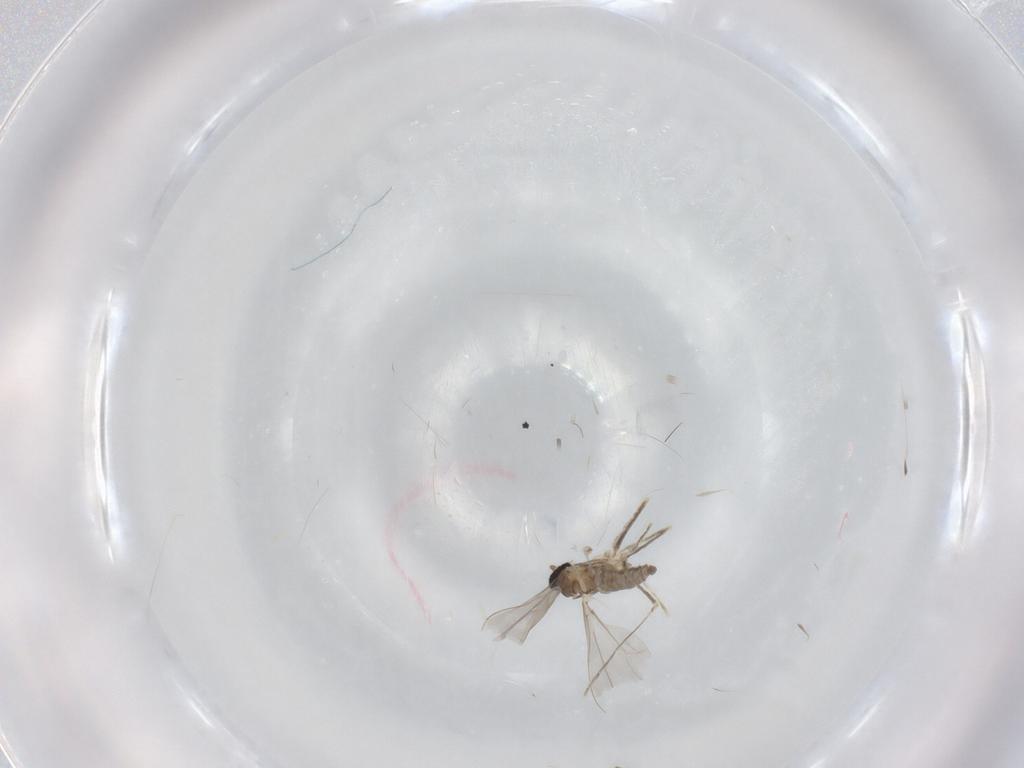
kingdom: Animalia
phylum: Arthropoda
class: Insecta
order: Diptera
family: Cecidomyiidae
